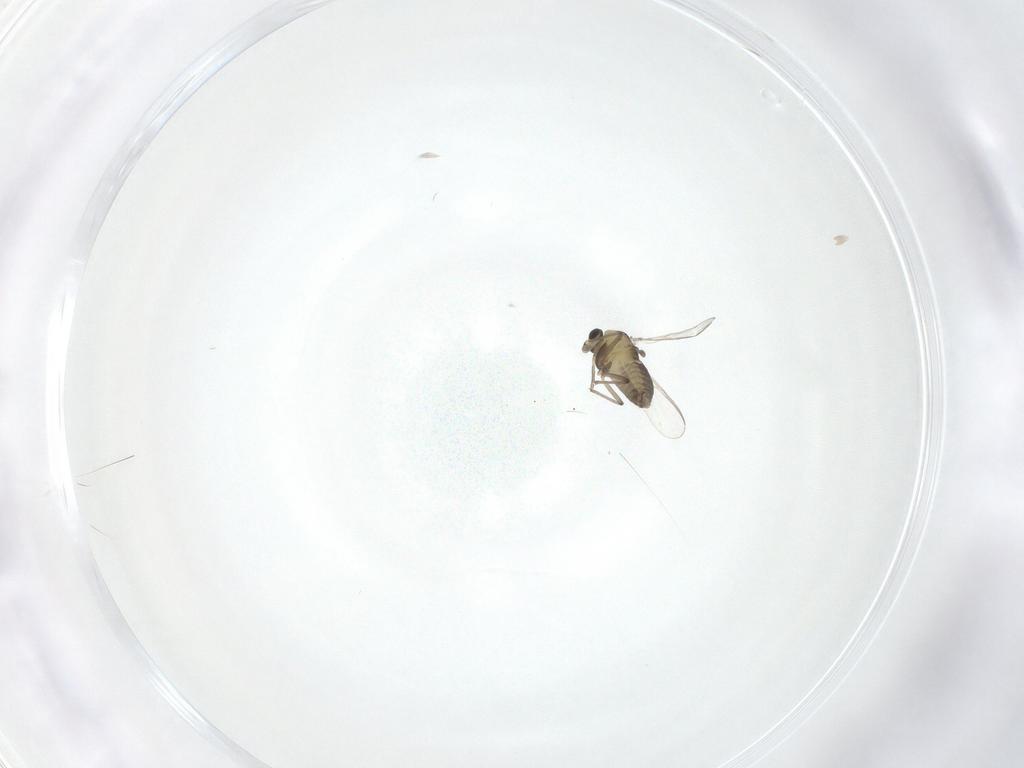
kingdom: Animalia
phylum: Arthropoda
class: Insecta
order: Diptera
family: Chironomidae
